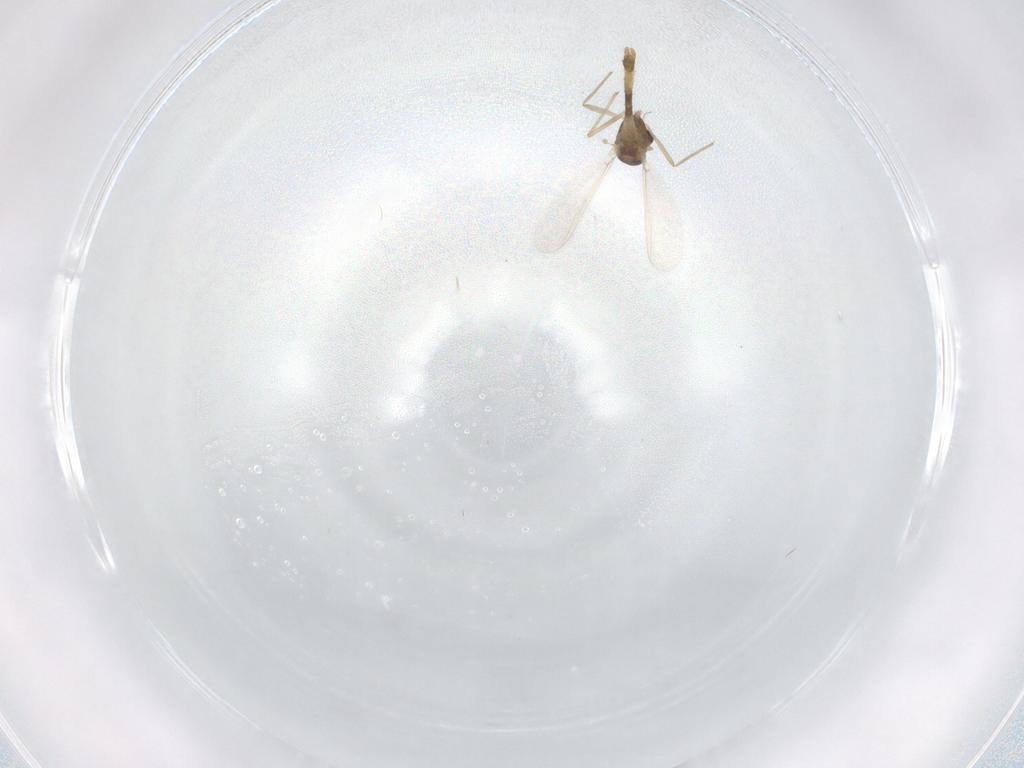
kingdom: Animalia
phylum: Arthropoda
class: Insecta
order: Diptera
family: Chironomidae
